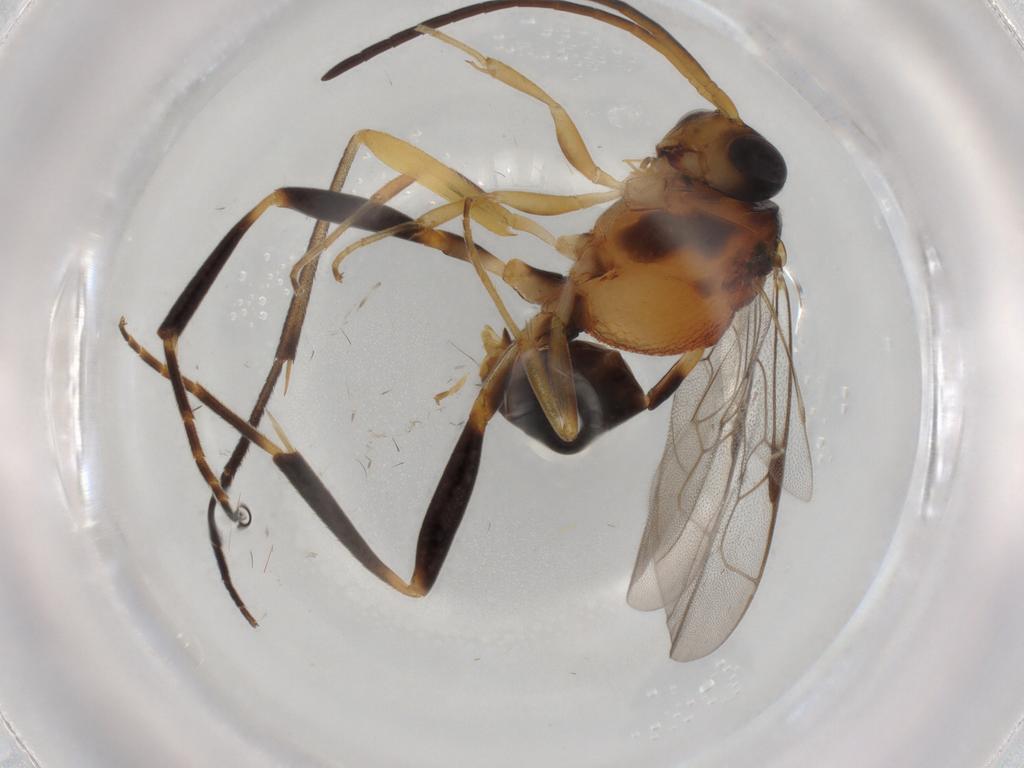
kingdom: Animalia
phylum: Arthropoda
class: Insecta
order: Hymenoptera
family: Evaniidae
